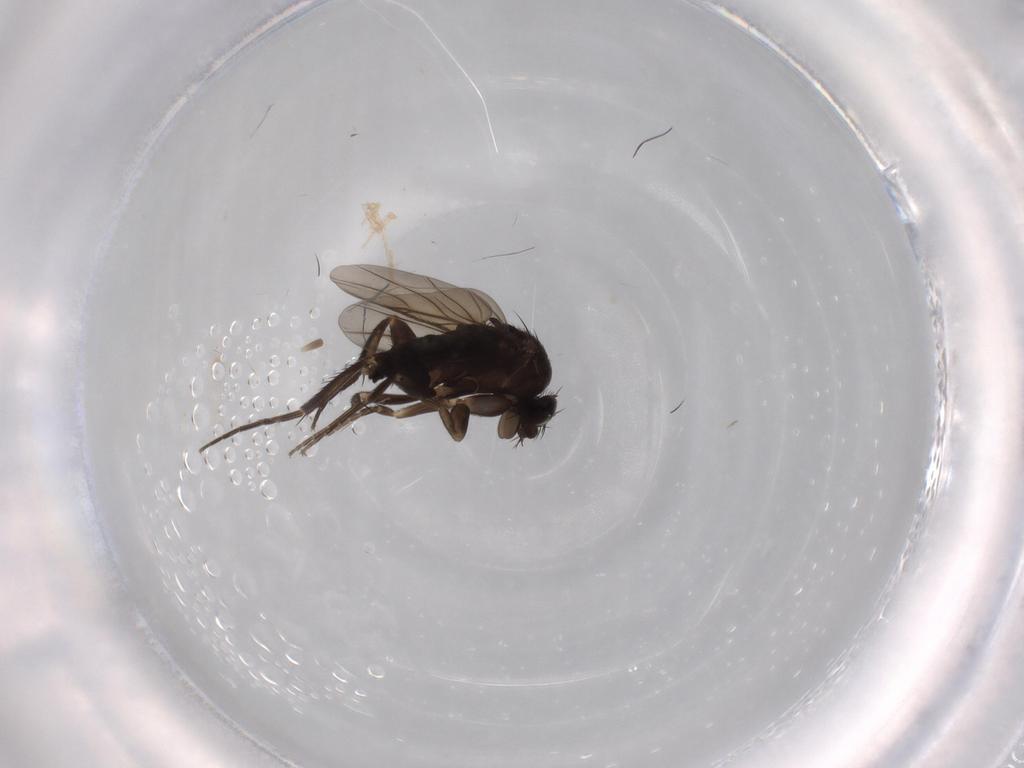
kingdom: Animalia
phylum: Arthropoda
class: Insecta
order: Diptera
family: Phoridae
